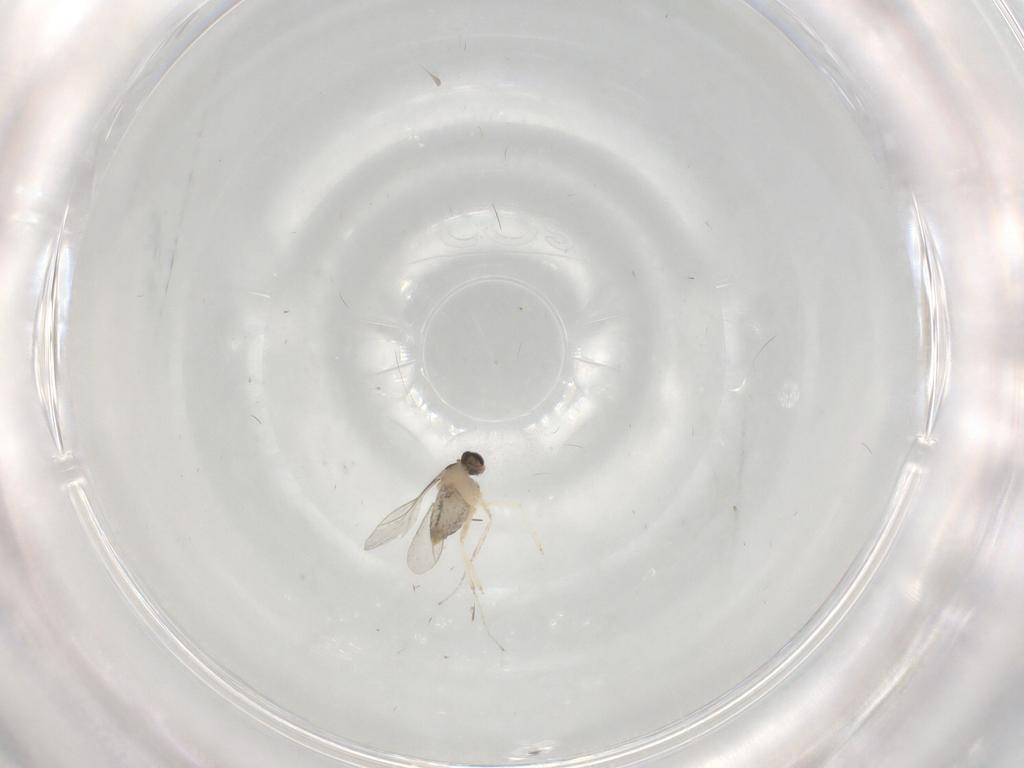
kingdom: Animalia
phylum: Arthropoda
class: Insecta
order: Diptera
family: Cecidomyiidae
